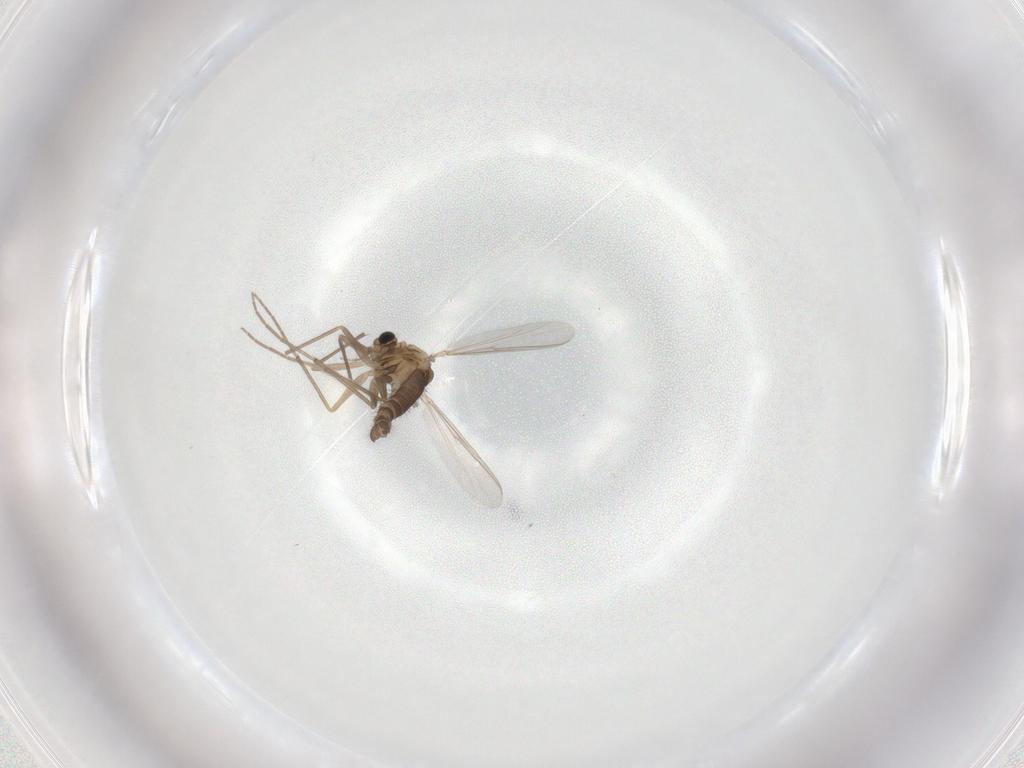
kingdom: Animalia
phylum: Arthropoda
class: Insecta
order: Diptera
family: Chironomidae
